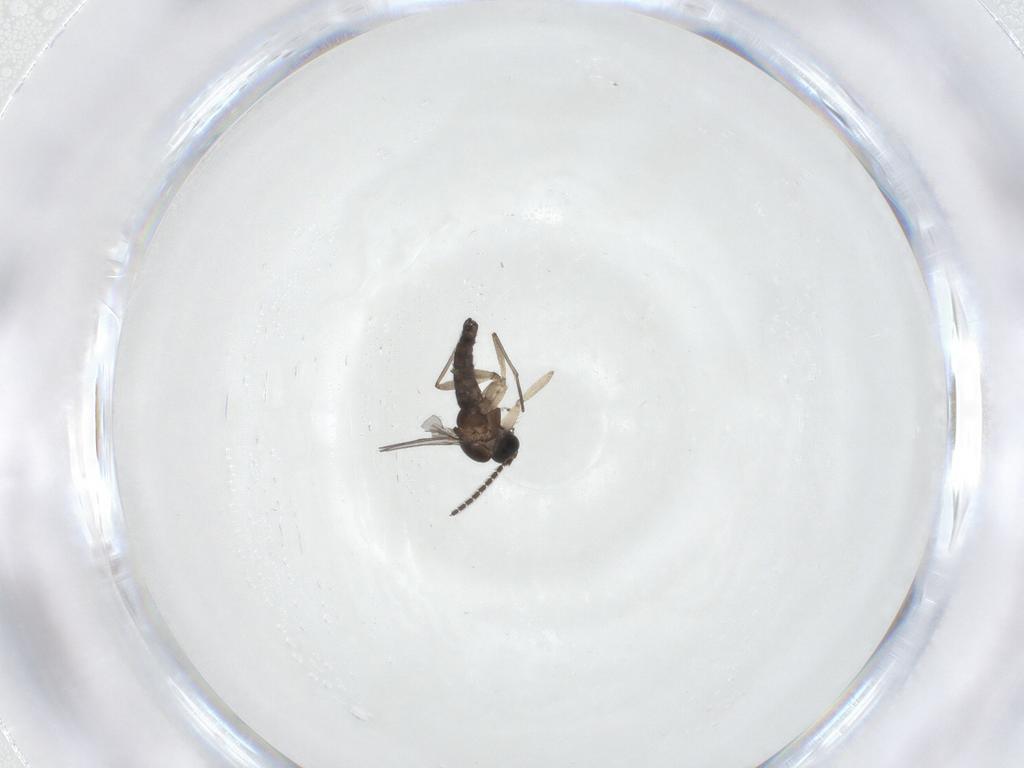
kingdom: Animalia
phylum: Arthropoda
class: Insecta
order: Diptera
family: Sciaridae
